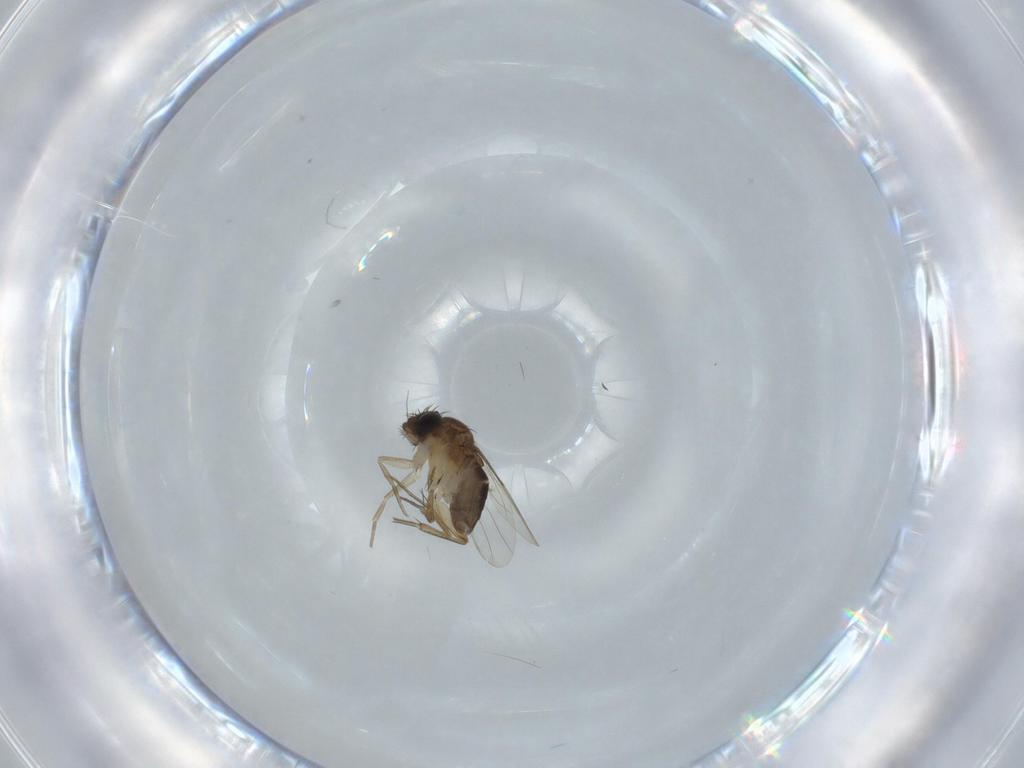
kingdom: Animalia
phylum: Arthropoda
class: Insecta
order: Diptera
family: Phoridae
